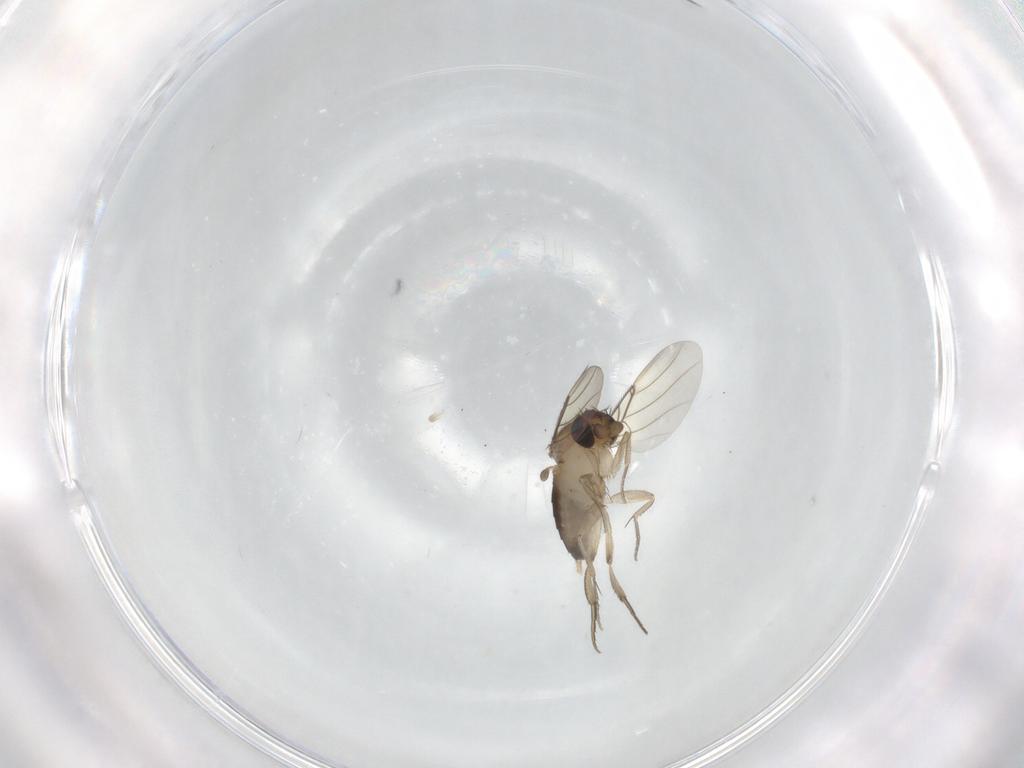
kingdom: Animalia
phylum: Arthropoda
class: Insecta
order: Diptera
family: Phoridae
